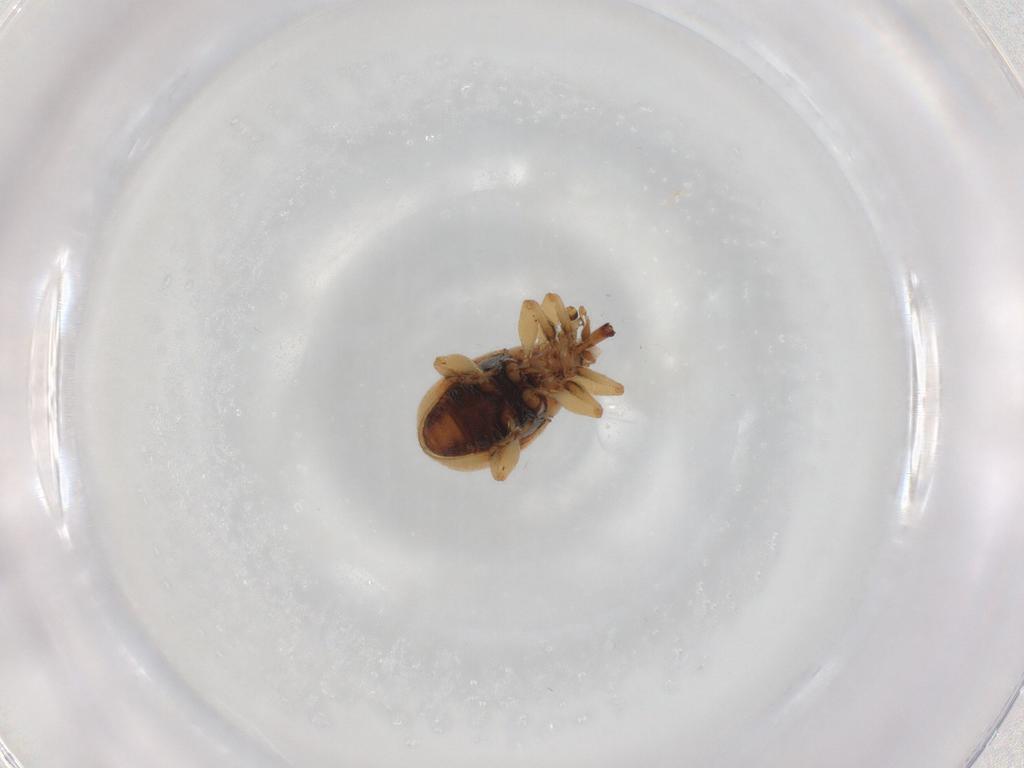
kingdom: Animalia
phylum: Arthropoda
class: Insecta
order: Coleoptera
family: Brentidae
